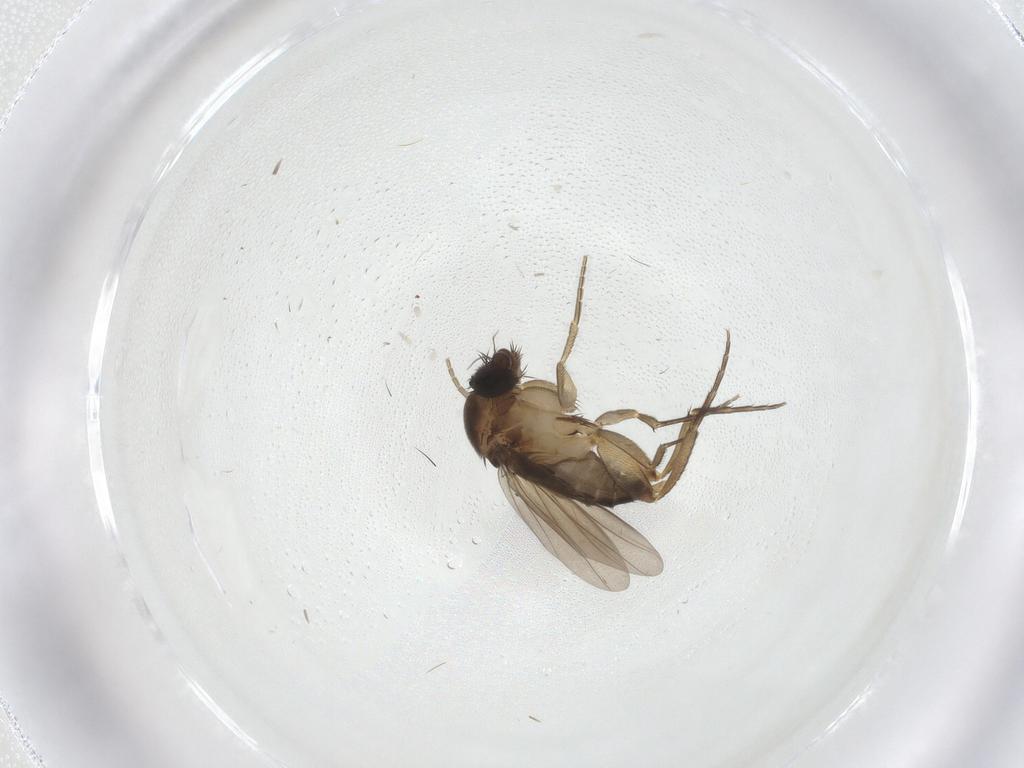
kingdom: Animalia
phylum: Arthropoda
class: Insecta
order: Diptera
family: Phoridae
